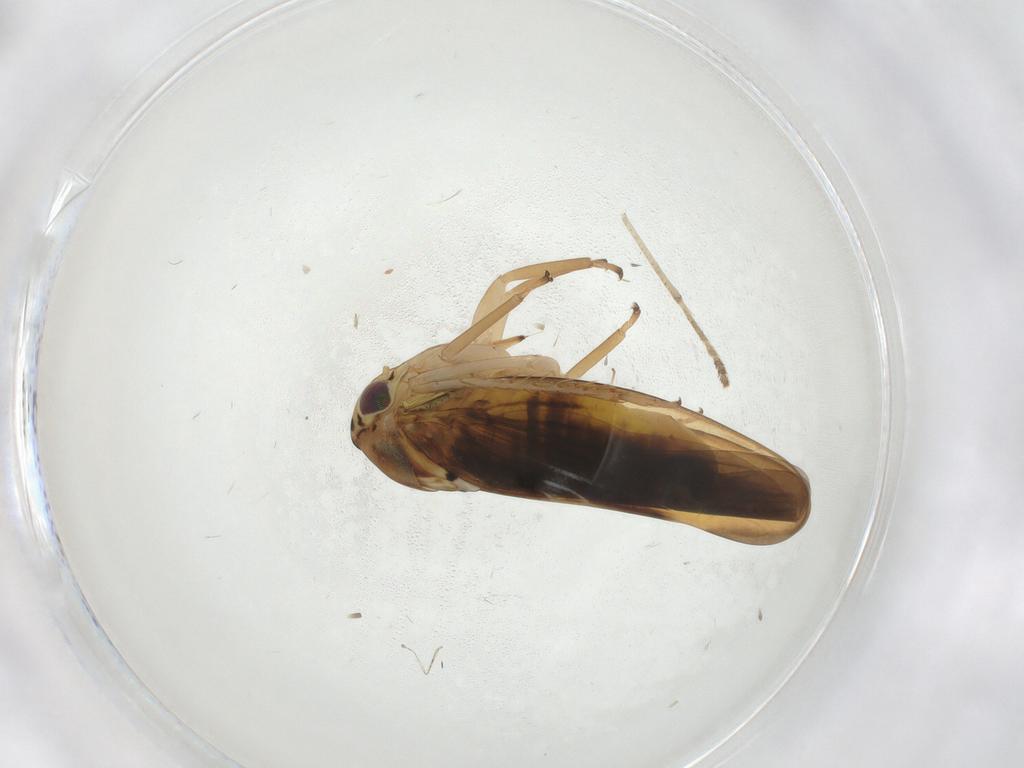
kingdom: Animalia
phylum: Arthropoda
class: Insecta
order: Hemiptera
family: Cicadellidae
